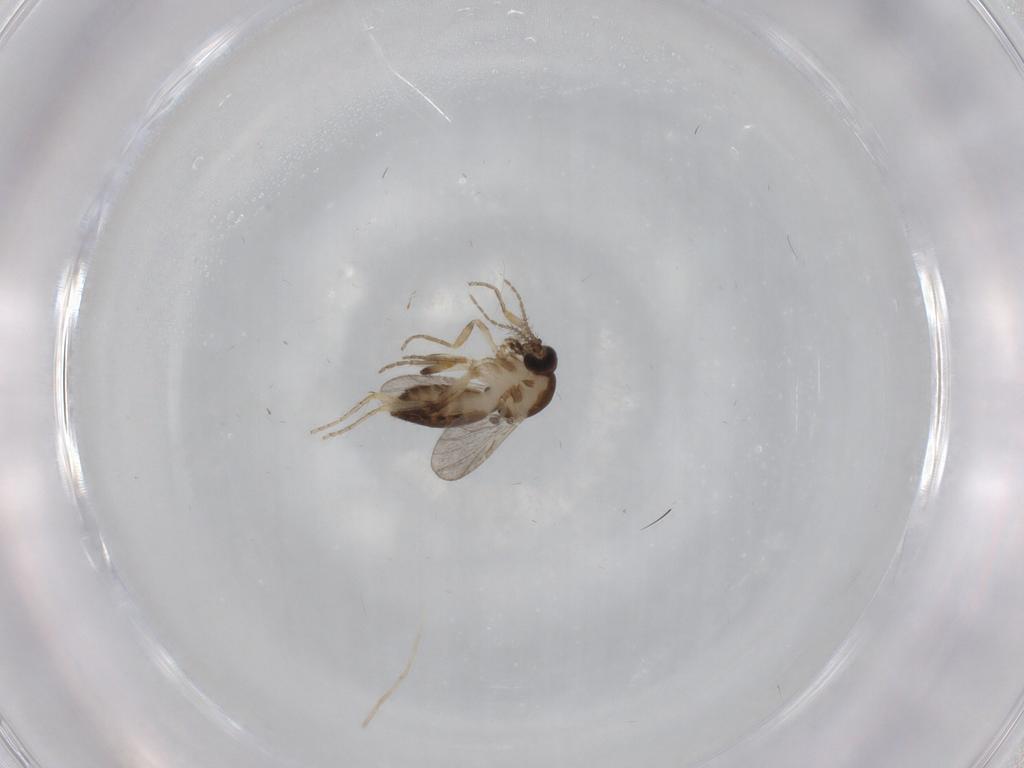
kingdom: Animalia
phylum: Arthropoda
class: Insecta
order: Diptera
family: Ceratopogonidae
